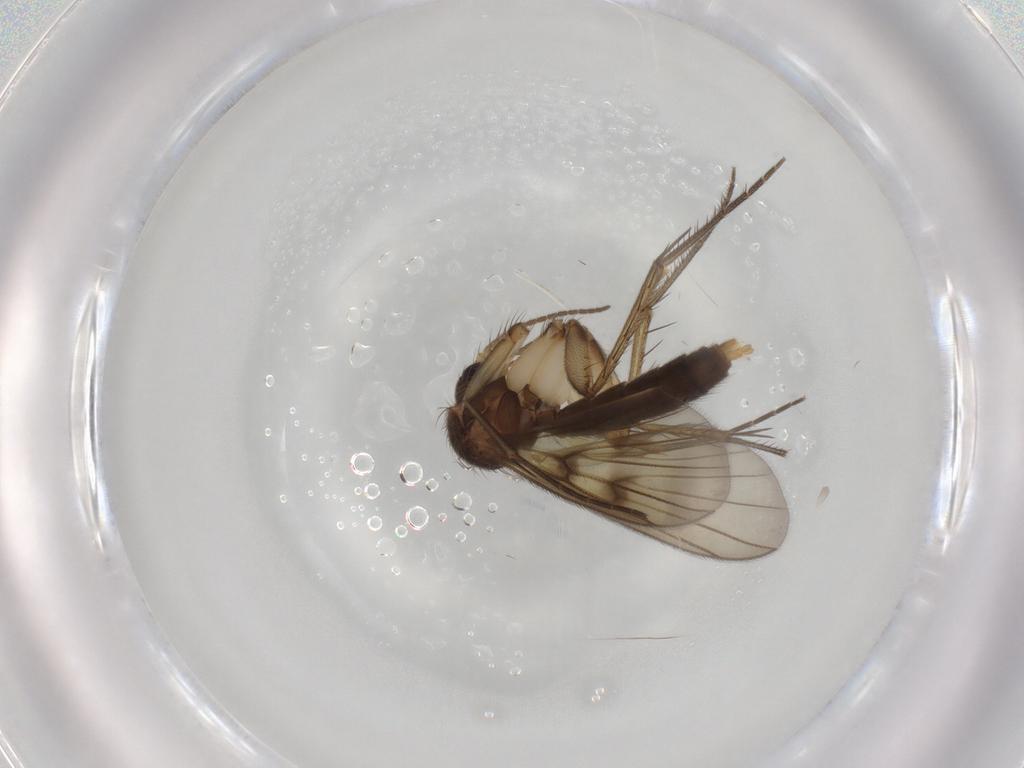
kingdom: Animalia
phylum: Arthropoda
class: Insecta
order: Diptera
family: Mycetophilidae
